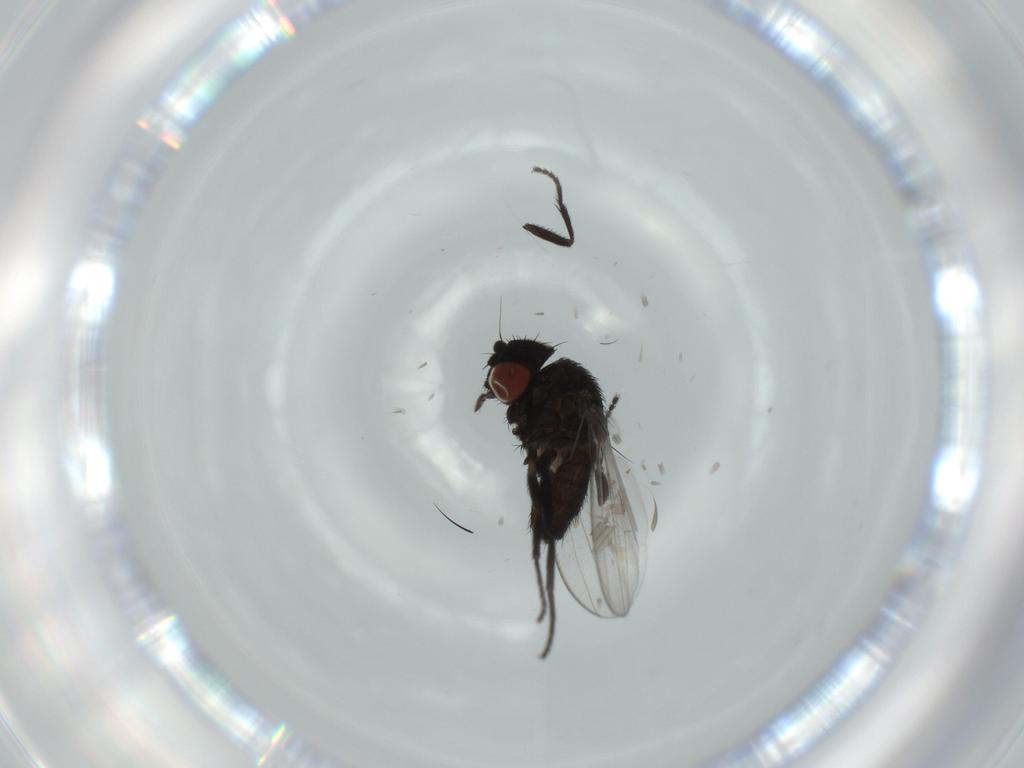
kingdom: Animalia
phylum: Arthropoda
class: Insecta
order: Diptera
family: Milichiidae
